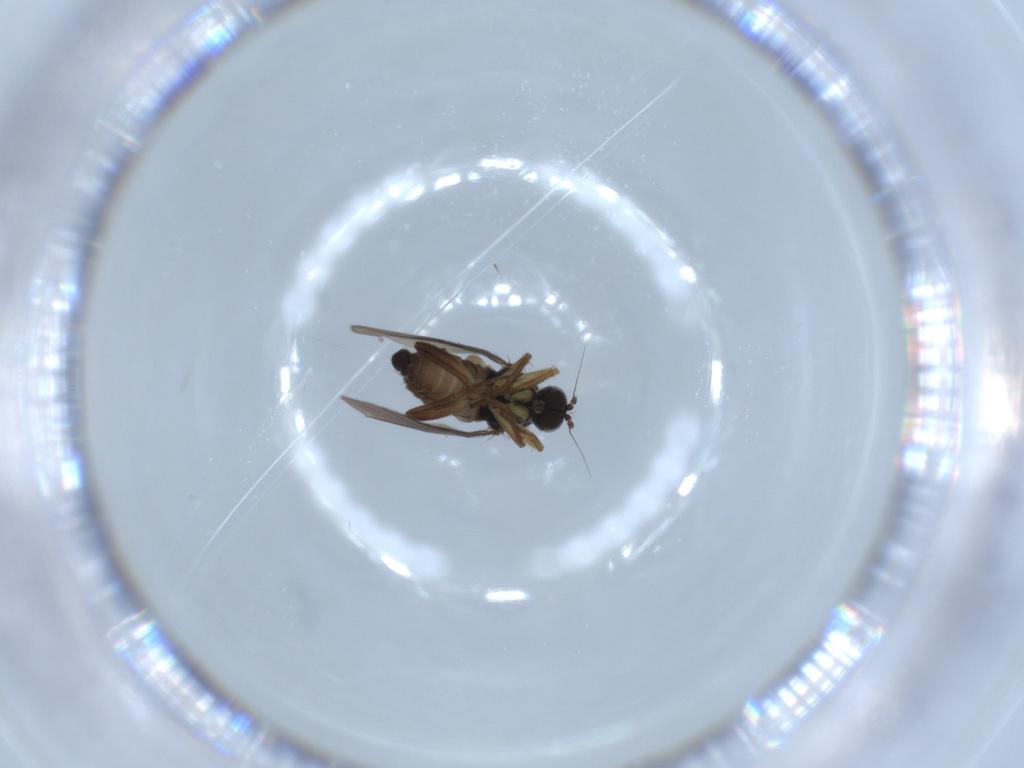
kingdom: Animalia
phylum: Arthropoda
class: Insecta
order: Diptera
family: Hybotidae
